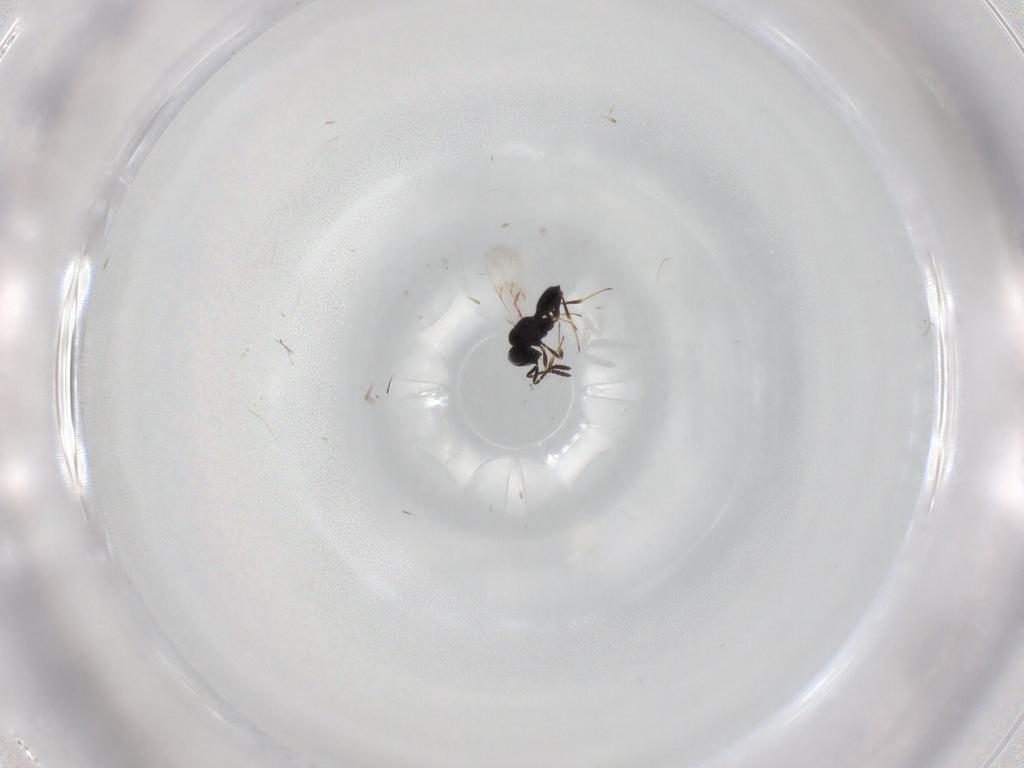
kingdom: Animalia
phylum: Arthropoda
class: Insecta
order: Hymenoptera
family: Scelionidae
